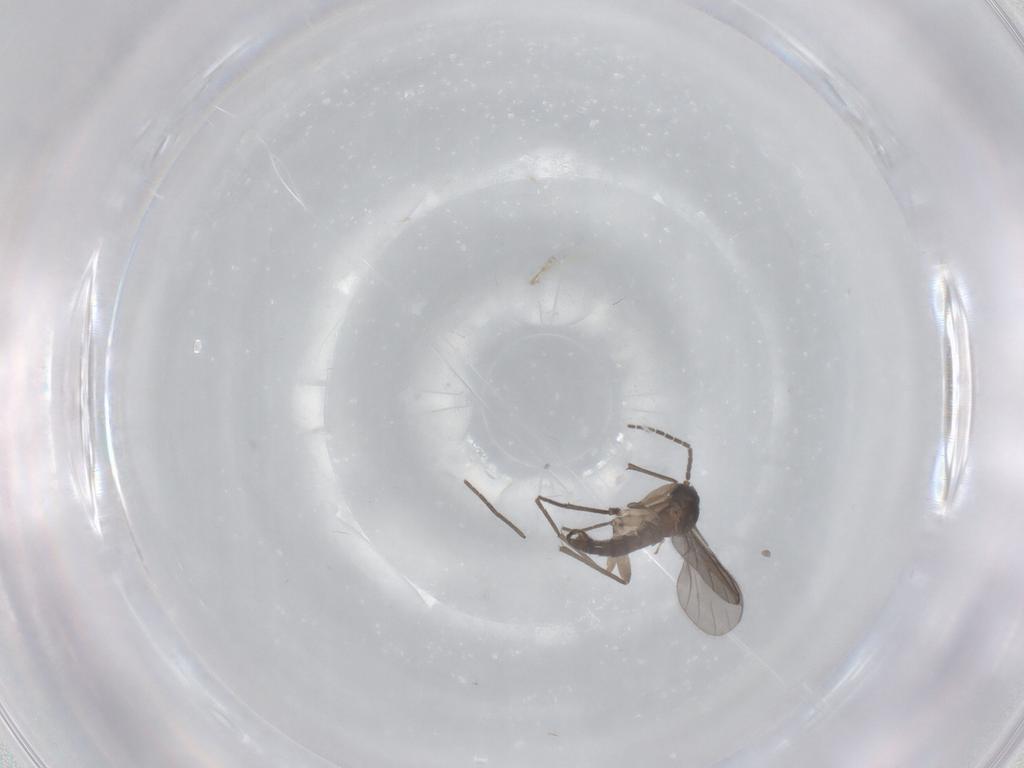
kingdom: Animalia
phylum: Arthropoda
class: Insecta
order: Diptera
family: Sciaridae
